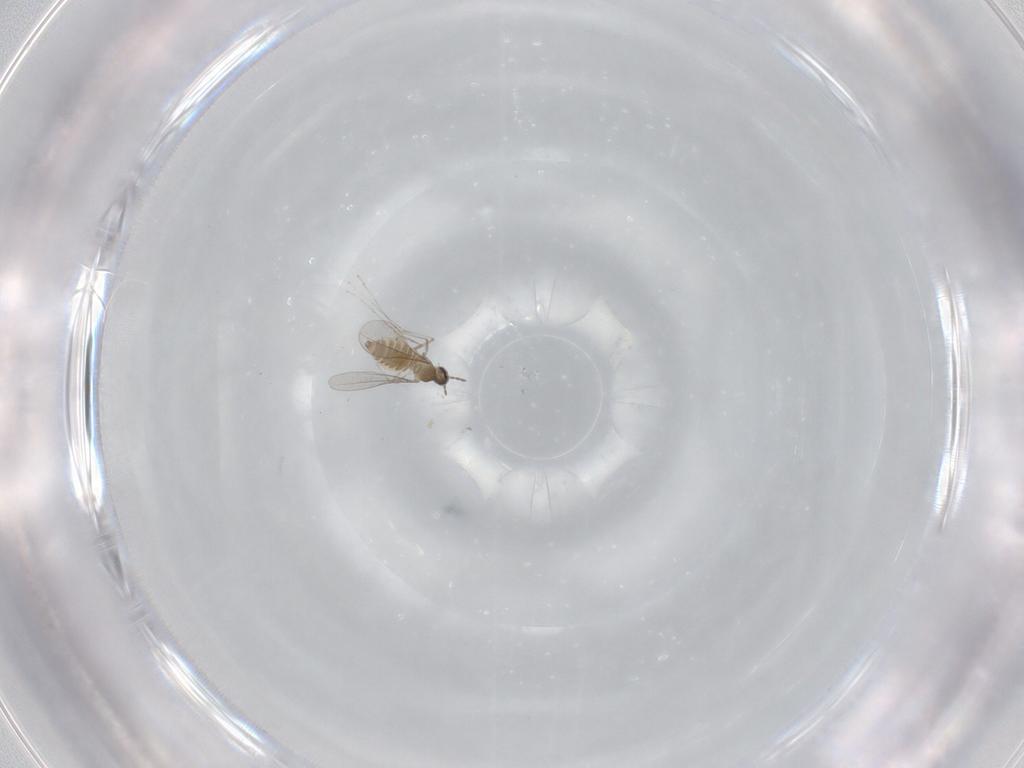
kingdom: Animalia
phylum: Arthropoda
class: Insecta
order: Diptera
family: Cecidomyiidae
